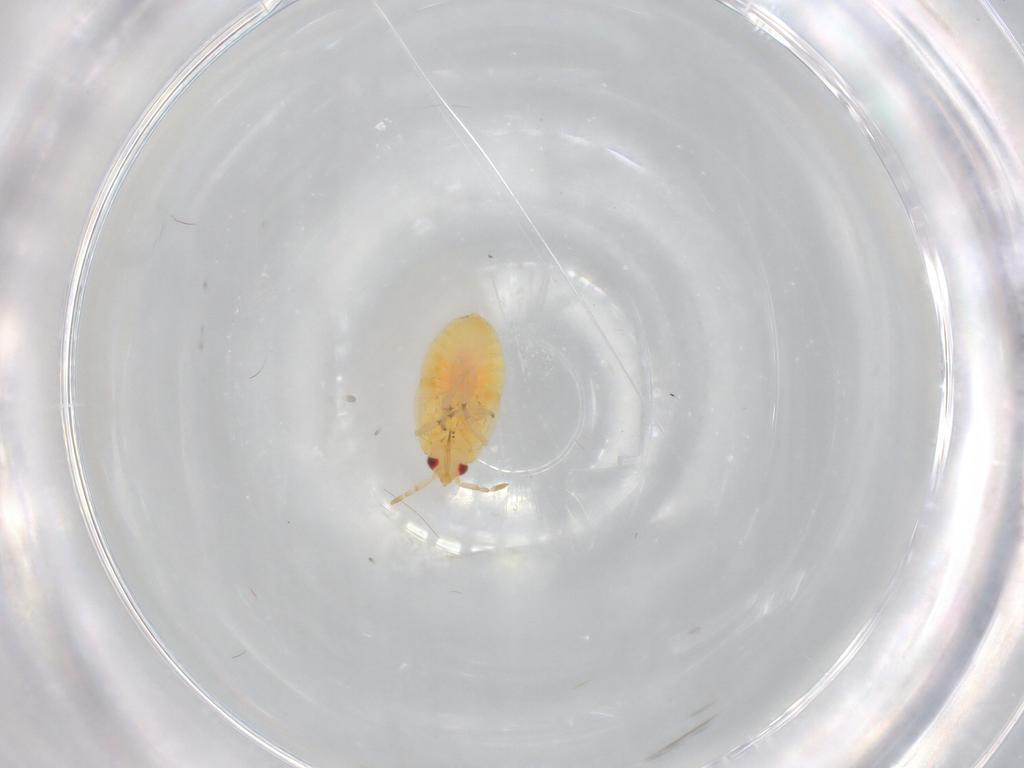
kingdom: Animalia
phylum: Arthropoda
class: Insecta
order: Hemiptera
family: Anthocoridae
